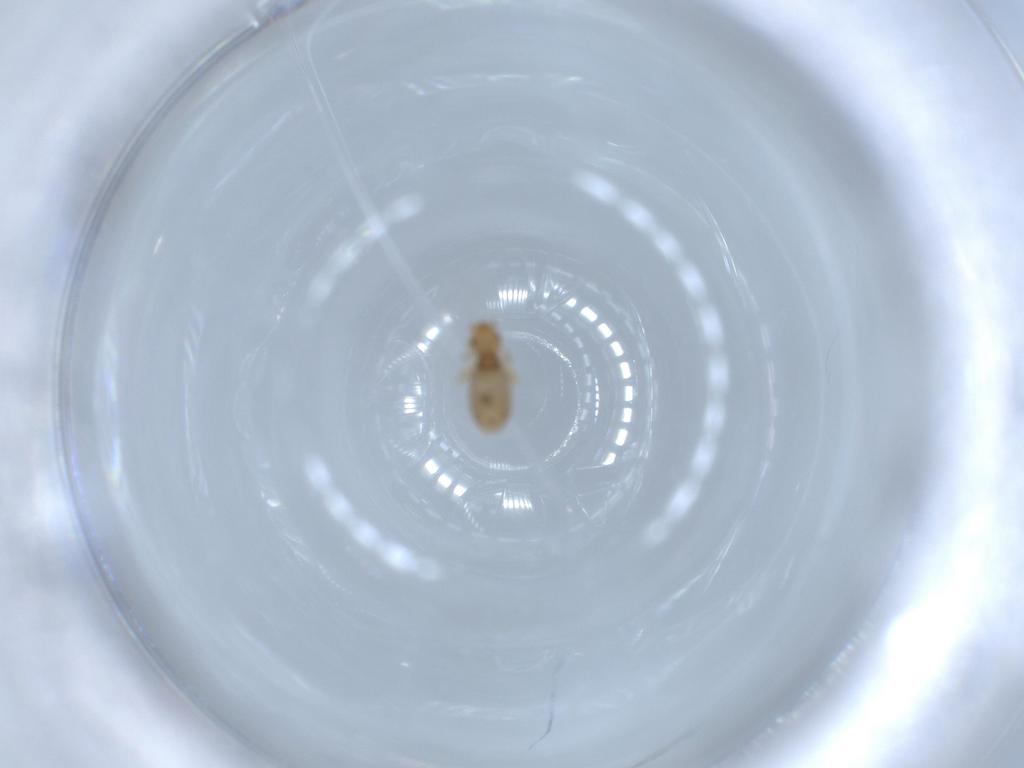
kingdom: Animalia
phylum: Arthropoda
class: Insecta
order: Psocodea
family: Liposcelididae
